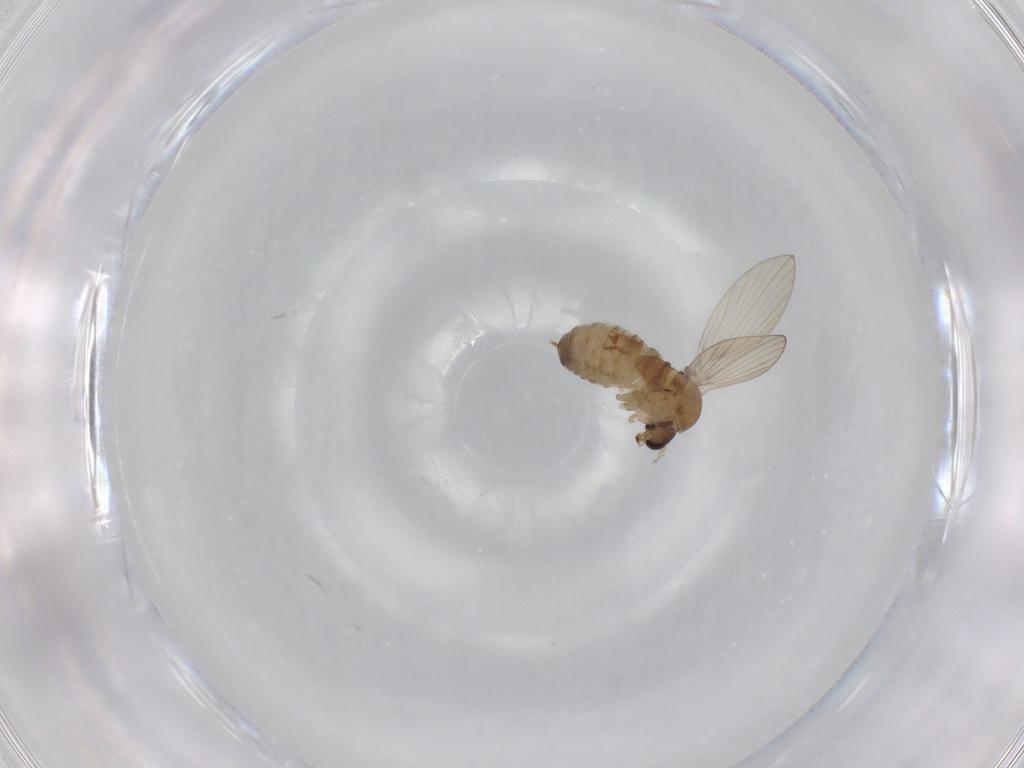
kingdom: Animalia
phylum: Arthropoda
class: Insecta
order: Diptera
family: Psychodidae
